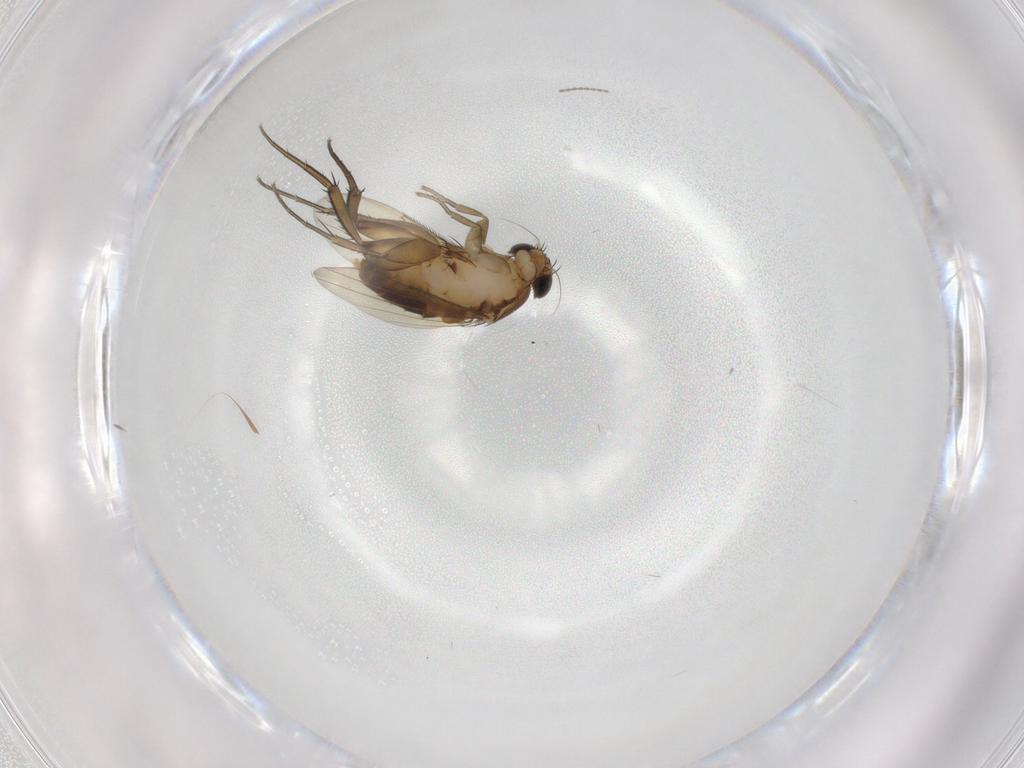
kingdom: Animalia
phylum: Arthropoda
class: Insecta
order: Diptera
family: Phoridae
